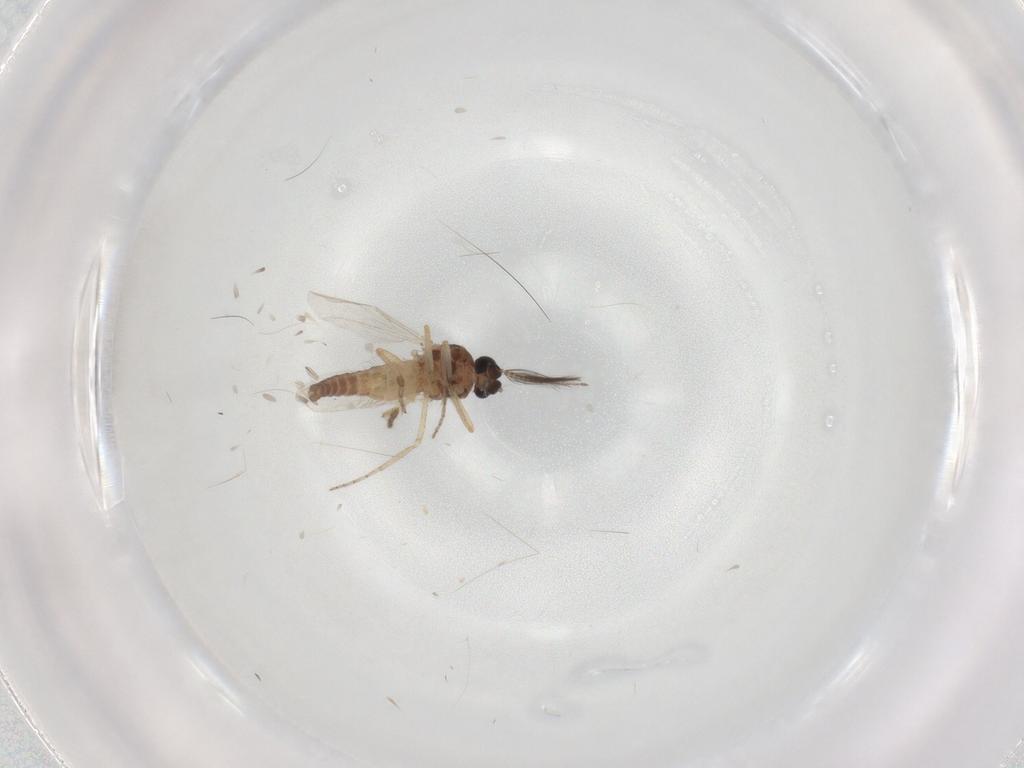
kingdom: Animalia
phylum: Arthropoda
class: Insecta
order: Diptera
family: Ceratopogonidae
